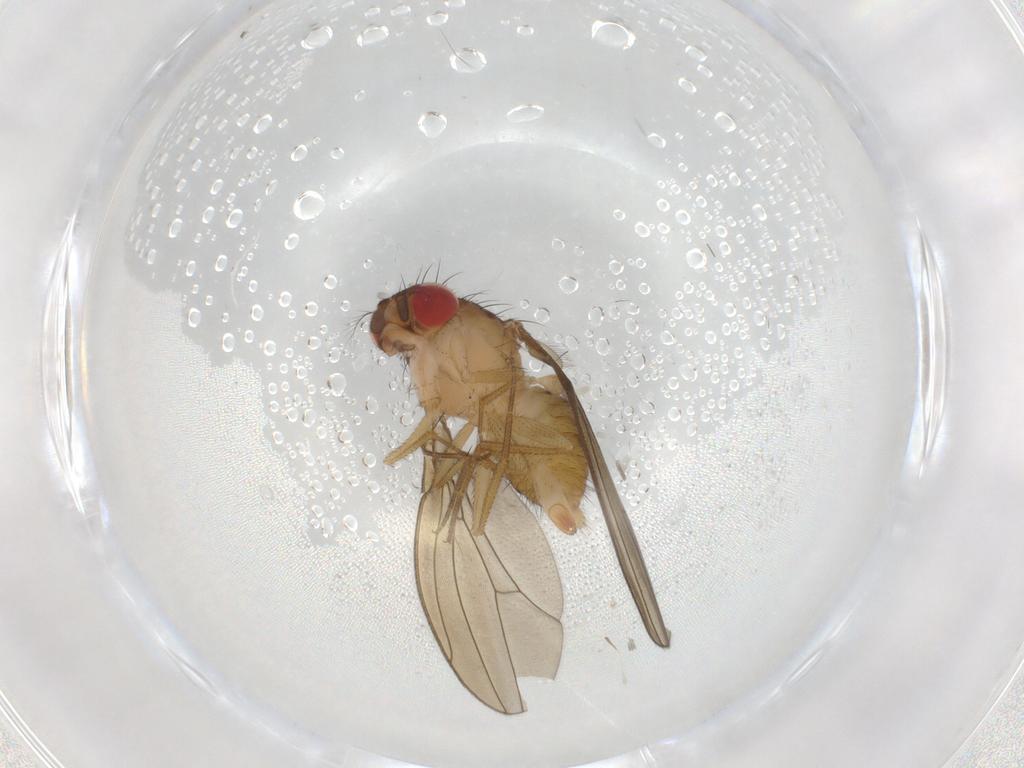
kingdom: Animalia
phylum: Arthropoda
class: Insecta
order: Diptera
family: Drosophilidae
